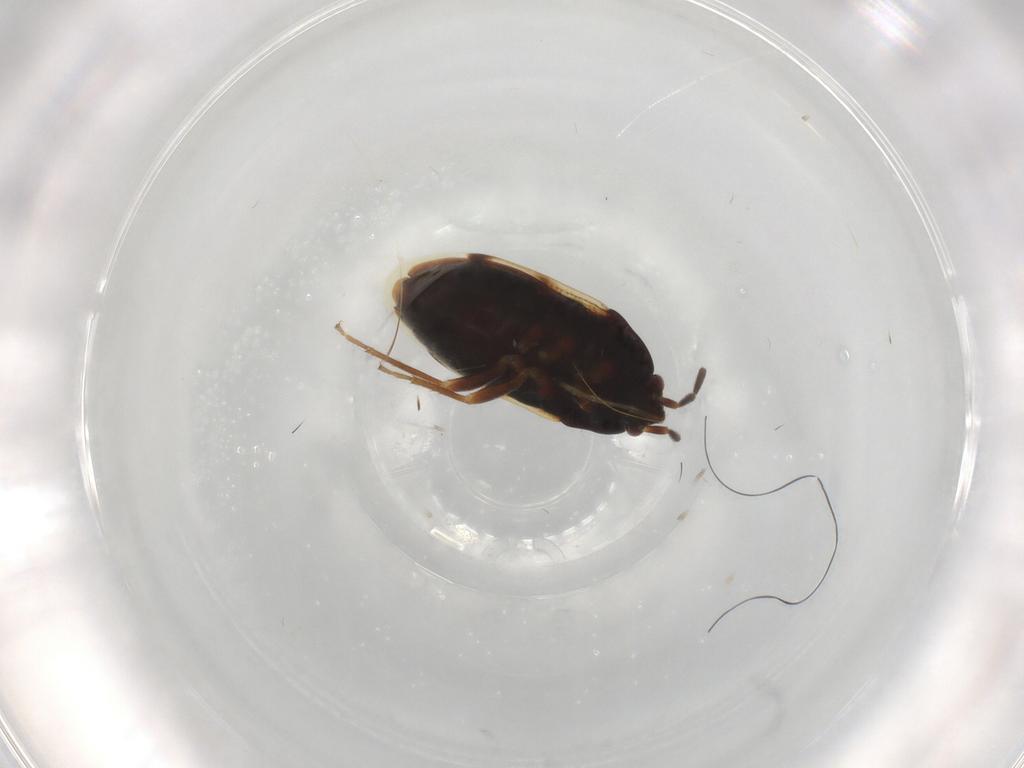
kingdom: Animalia
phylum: Arthropoda
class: Insecta
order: Hemiptera
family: Rhyparochromidae
